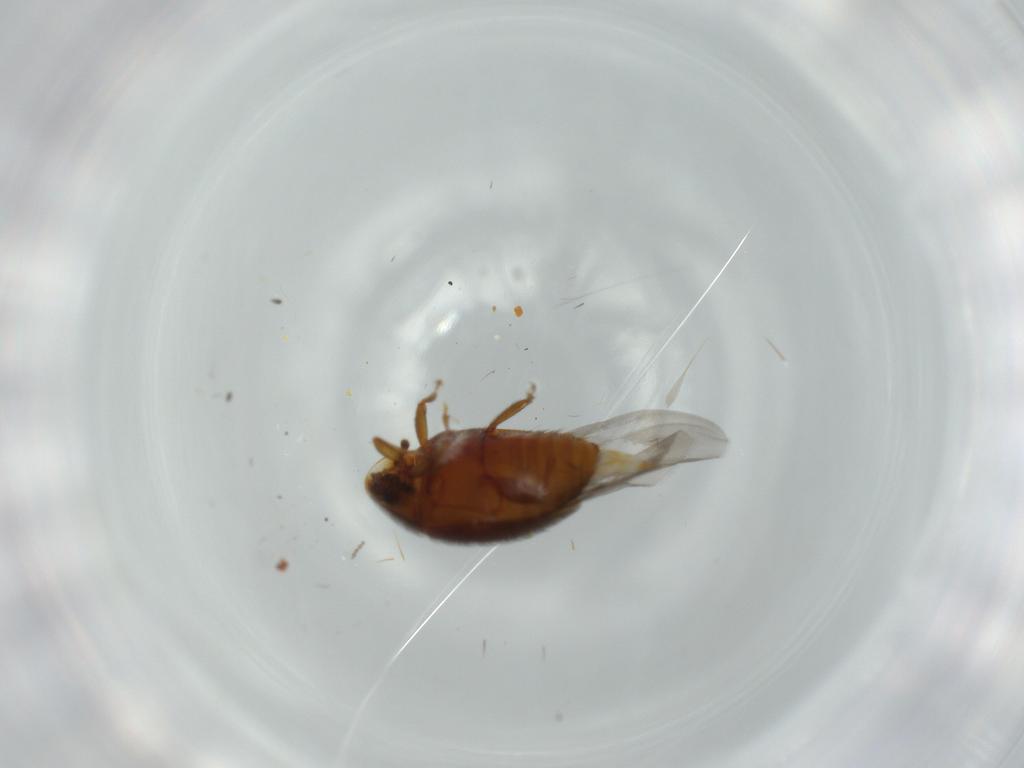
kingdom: Animalia
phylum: Arthropoda
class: Insecta
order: Coleoptera
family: Corylophidae
